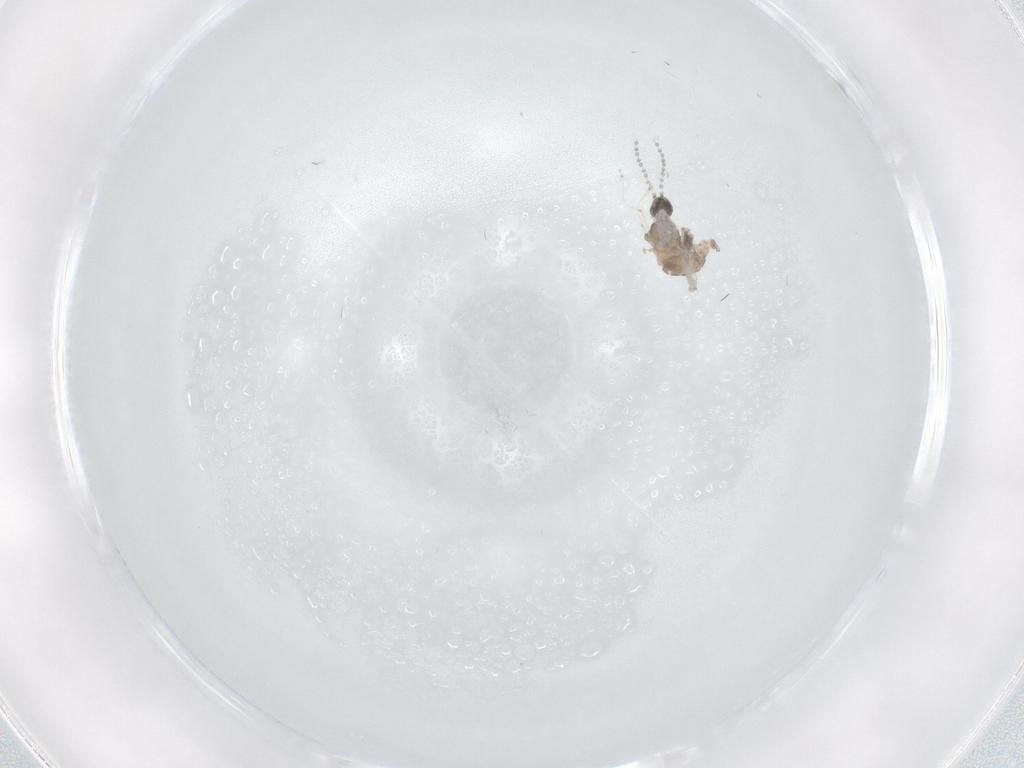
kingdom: Animalia
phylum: Arthropoda
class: Insecta
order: Diptera
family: Cecidomyiidae
